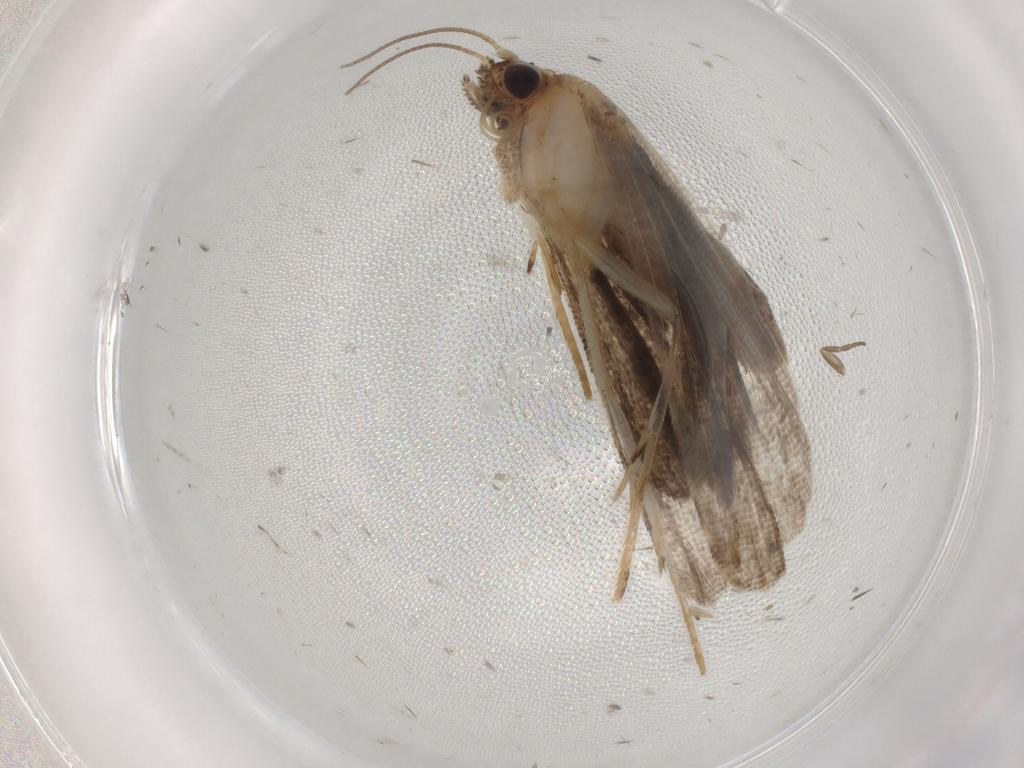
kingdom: Animalia
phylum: Arthropoda
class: Insecta
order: Lepidoptera
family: Erebidae
